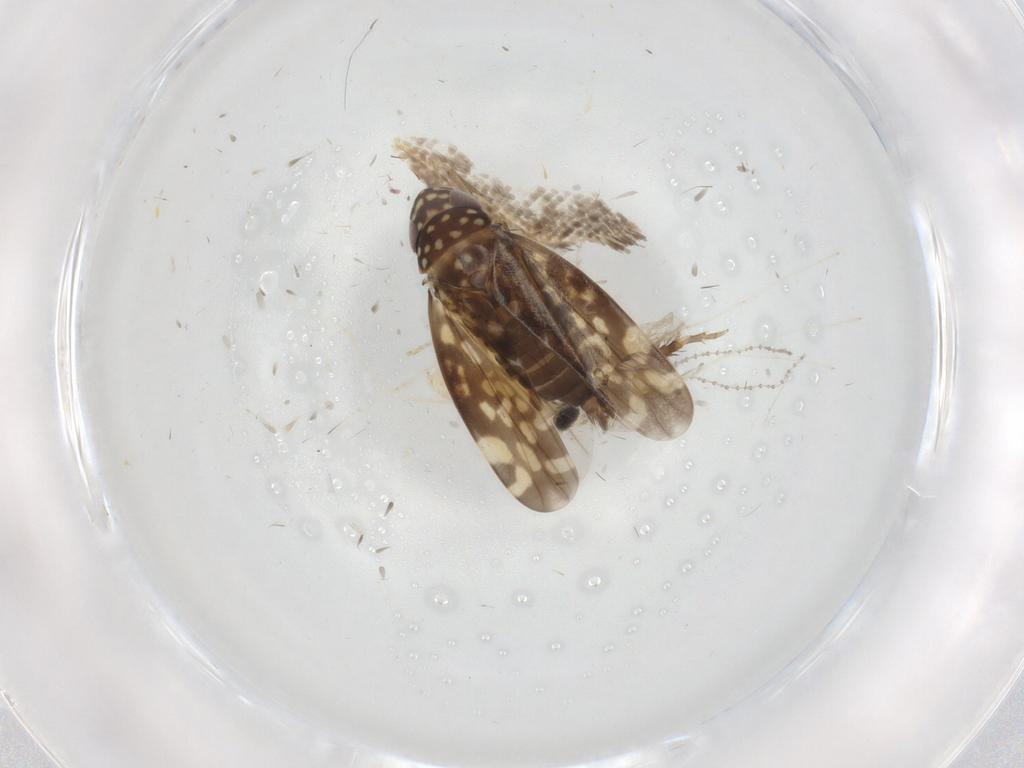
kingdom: Animalia
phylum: Arthropoda
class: Insecta
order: Hemiptera
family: Cicadellidae
